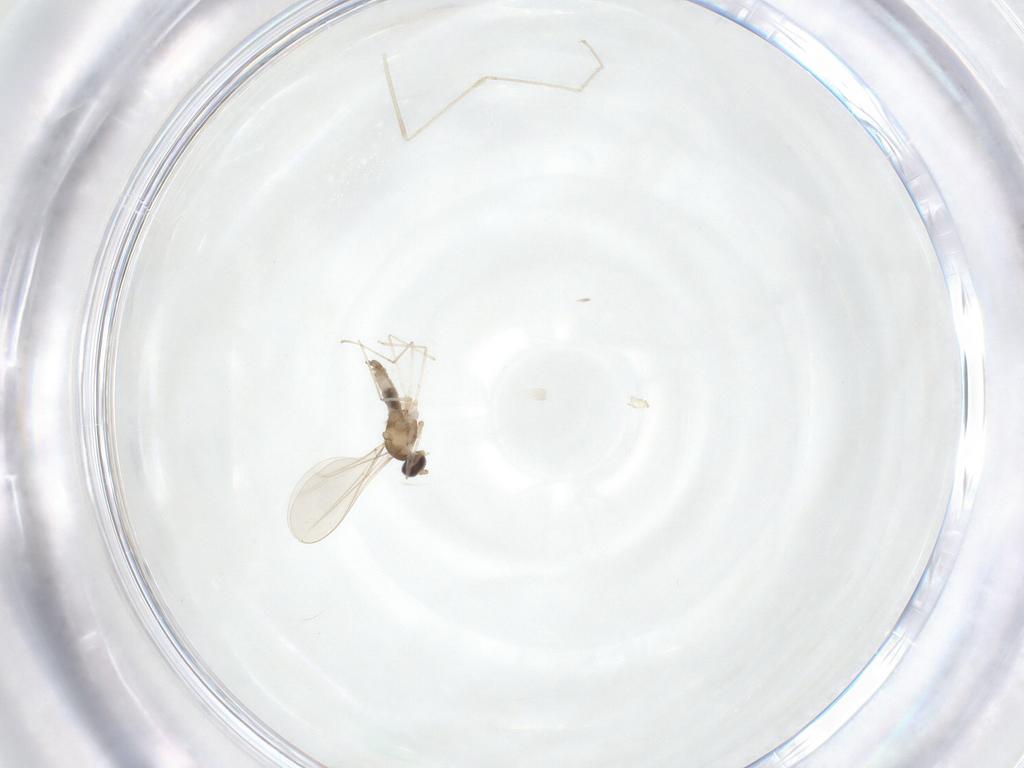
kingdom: Animalia
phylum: Arthropoda
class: Insecta
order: Diptera
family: Cecidomyiidae
